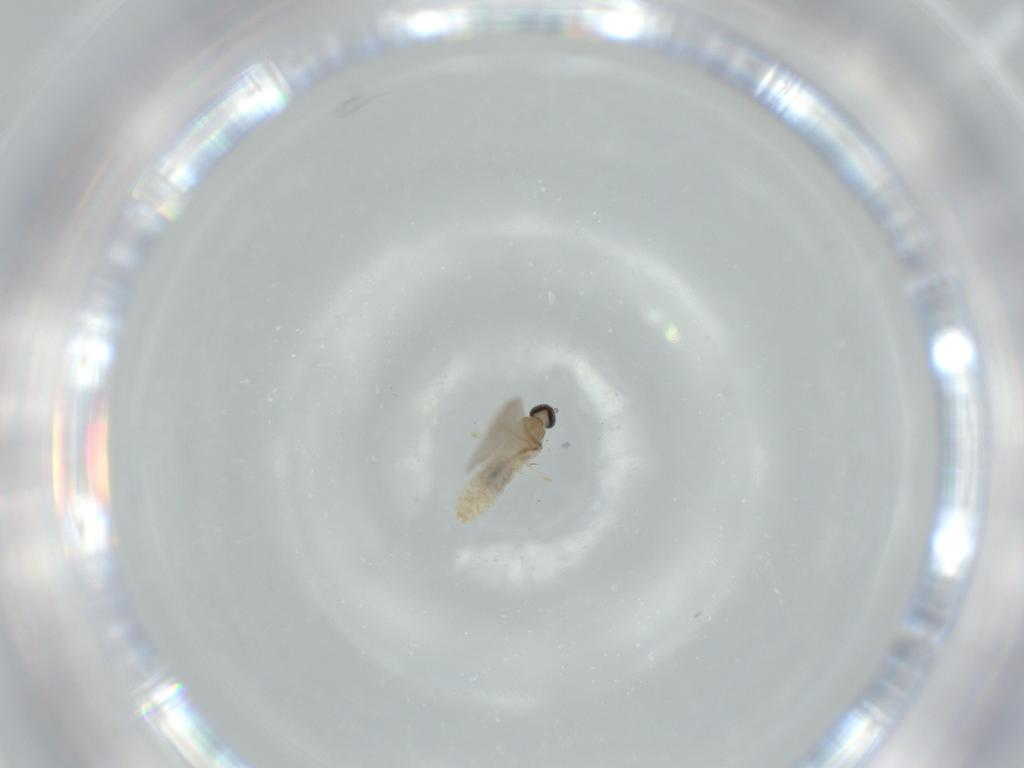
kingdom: Animalia
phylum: Arthropoda
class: Insecta
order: Diptera
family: Cecidomyiidae
